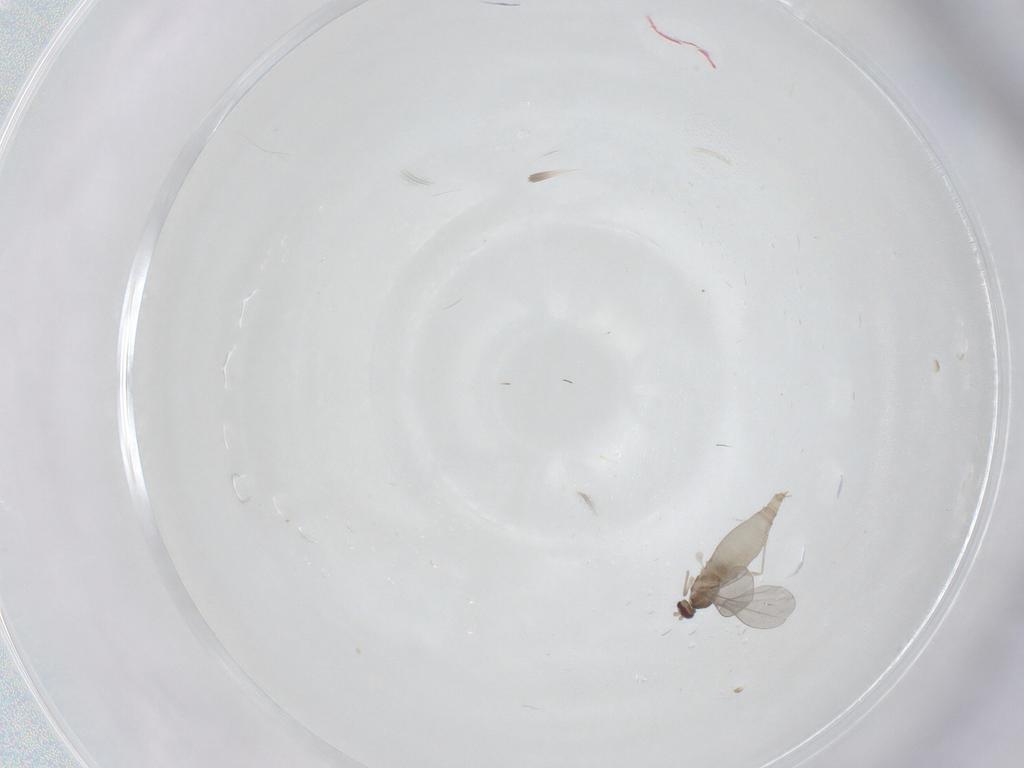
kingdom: Animalia
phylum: Arthropoda
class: Insecta
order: Diptera
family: Cecidomyiidae
